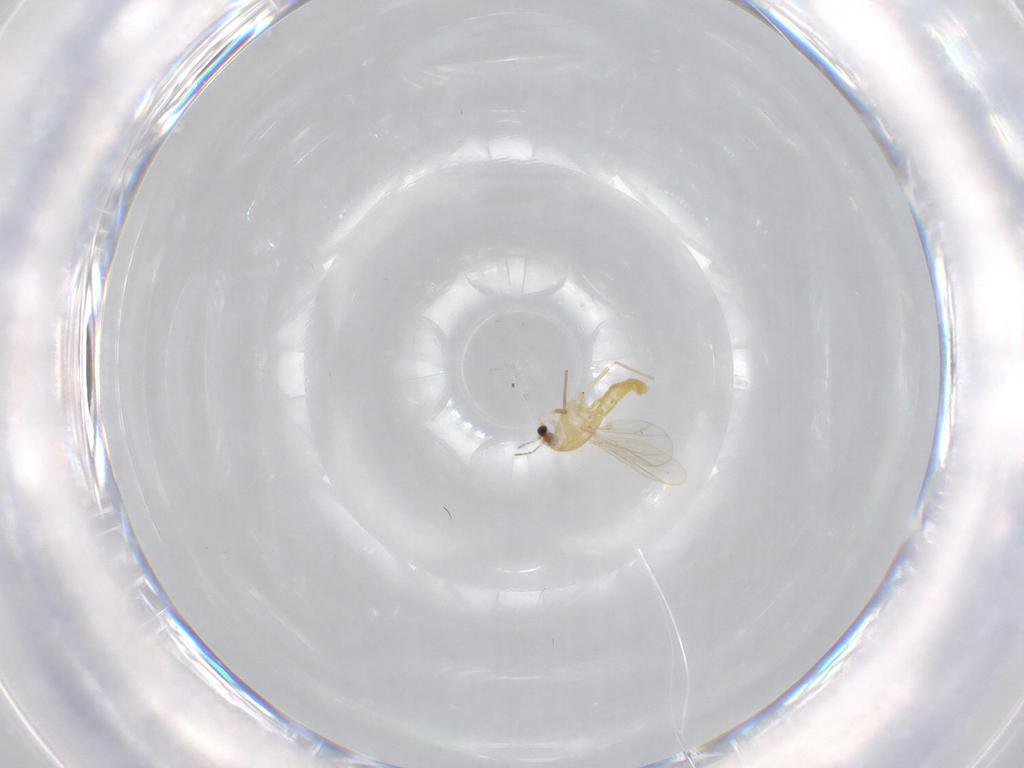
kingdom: Animalia
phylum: Arthropoda
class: Insecta
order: Diptera
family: Chironomidae
